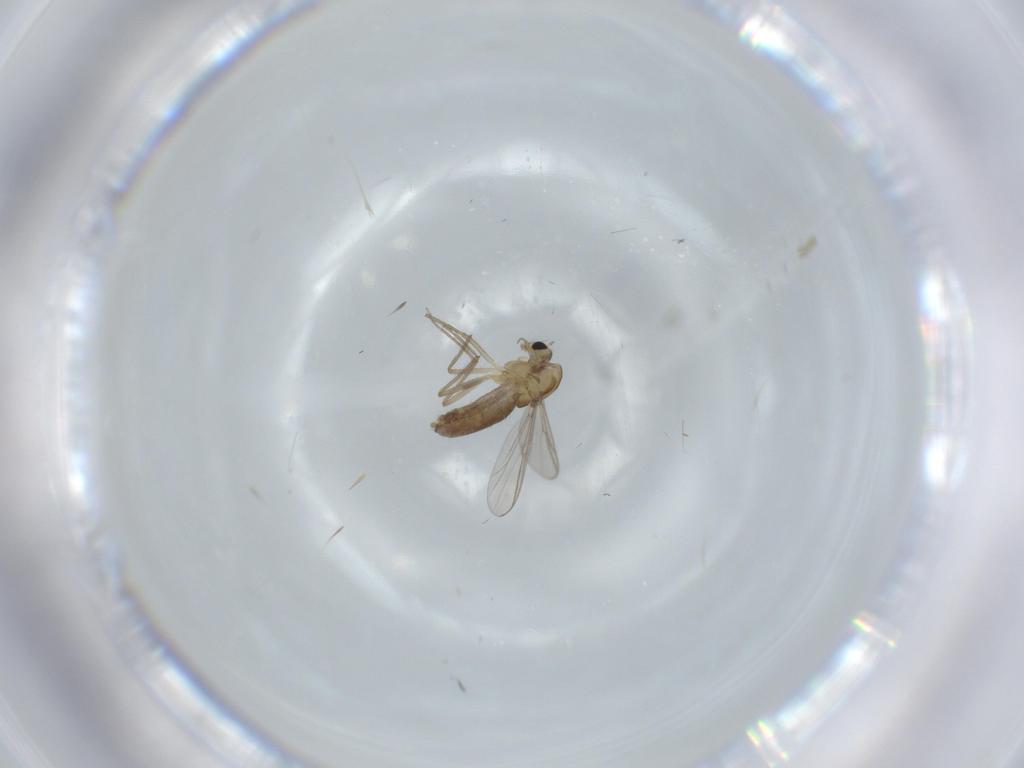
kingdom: Animalia
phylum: Arthropoda
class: Insecta
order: Diptera
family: Chironomidae
